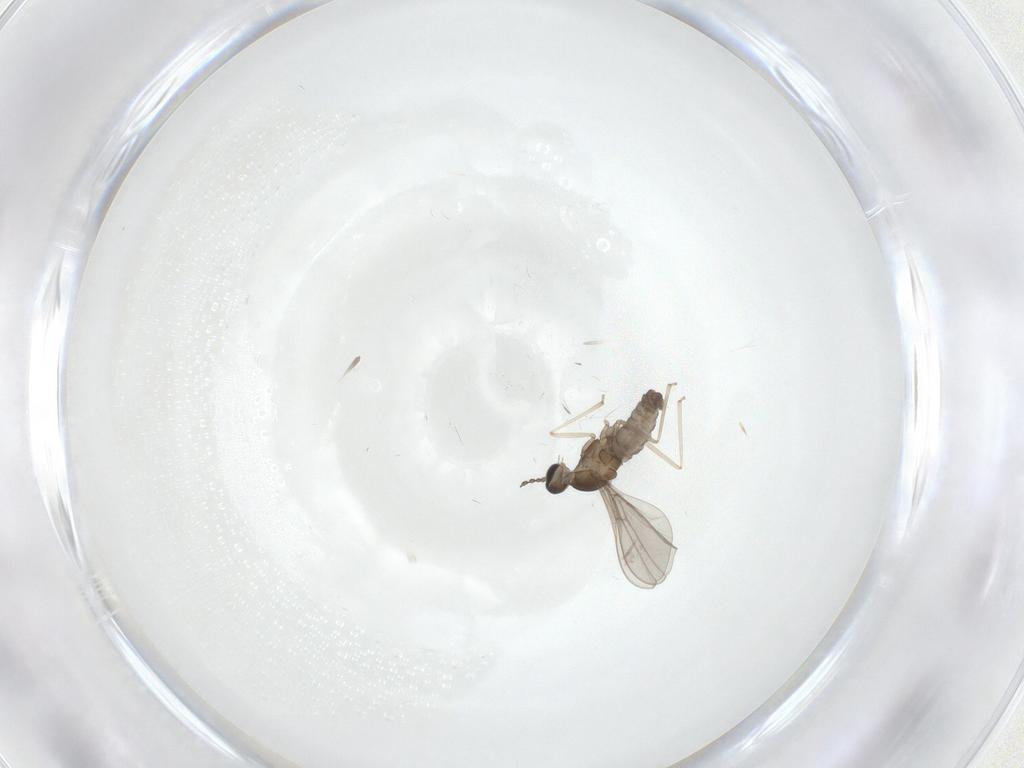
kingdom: Animalia
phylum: Arthropoda
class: Insecta
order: Diptera
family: Cecidomyiidae
